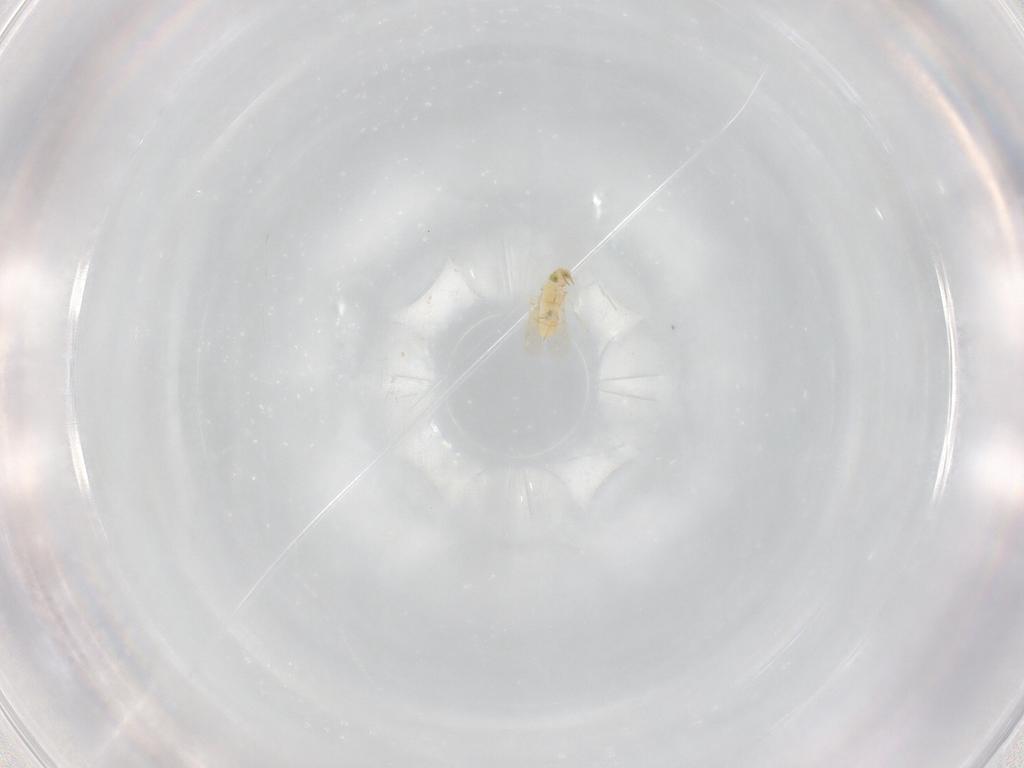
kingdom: Animalia
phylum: Arthropoda
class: Insecta
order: Hymenoptera
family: Aphelinidae
